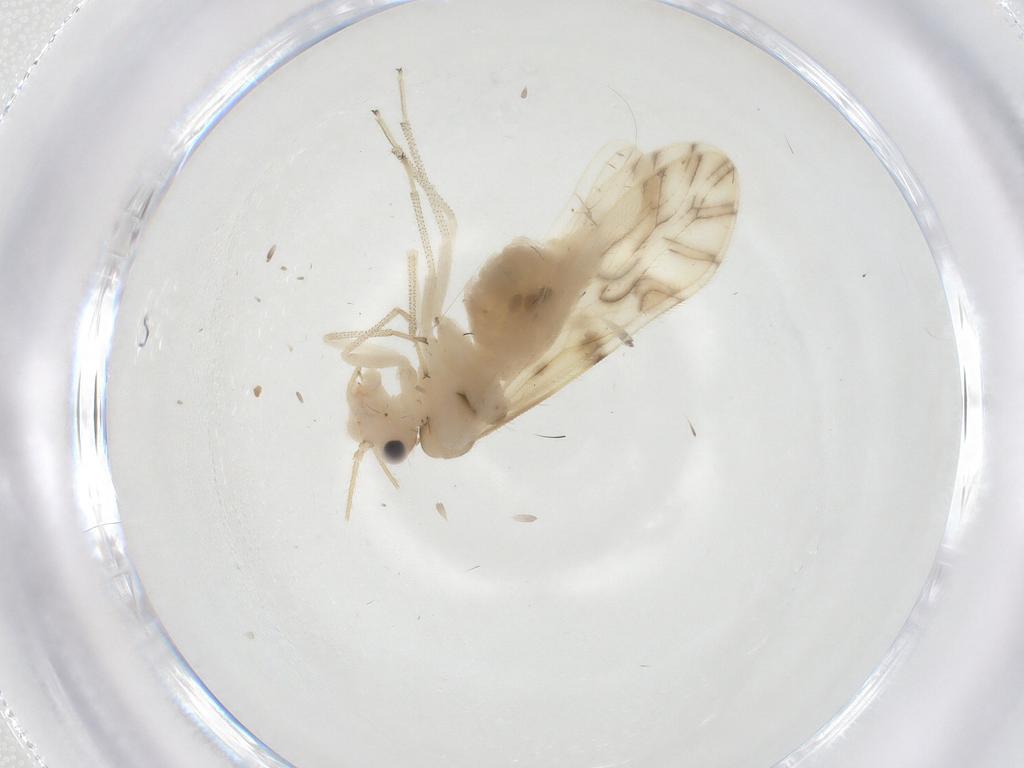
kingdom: Animalia
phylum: Arthropoda
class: Insecta
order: Psocodea
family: Caeciliusidae
